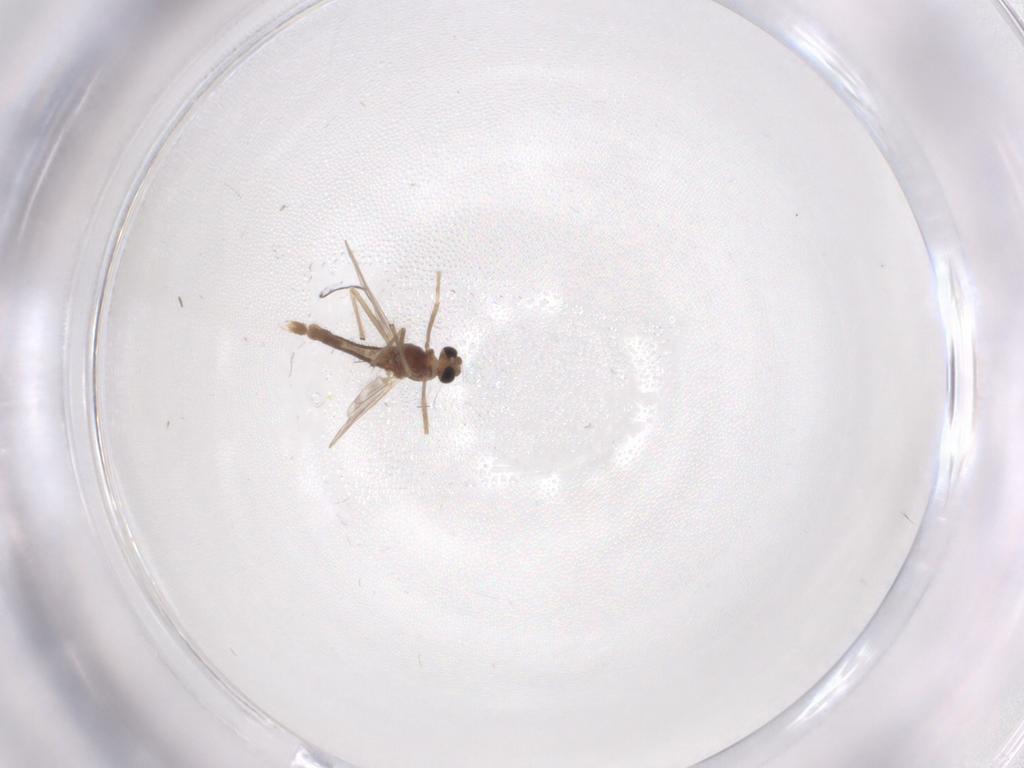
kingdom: Animalia
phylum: Arthropoda
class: Insecta
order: Diptera
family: Chironomidae
